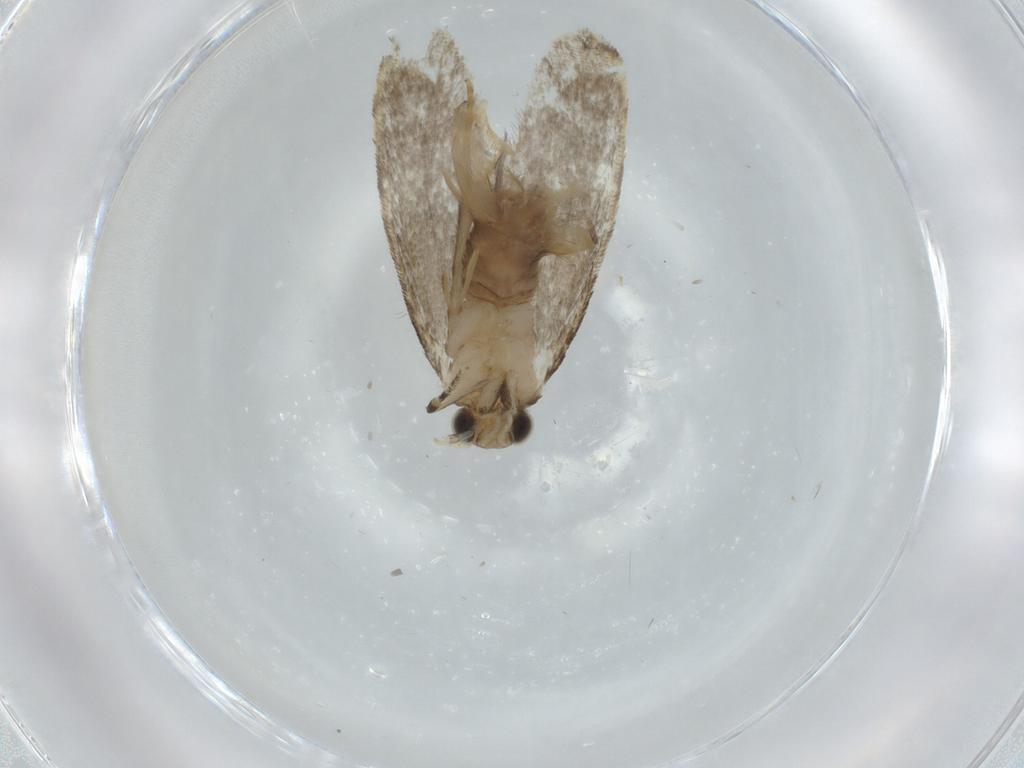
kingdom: Animalia
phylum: Arthropoda
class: Insecta
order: Lepidoptera
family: Tineidae
